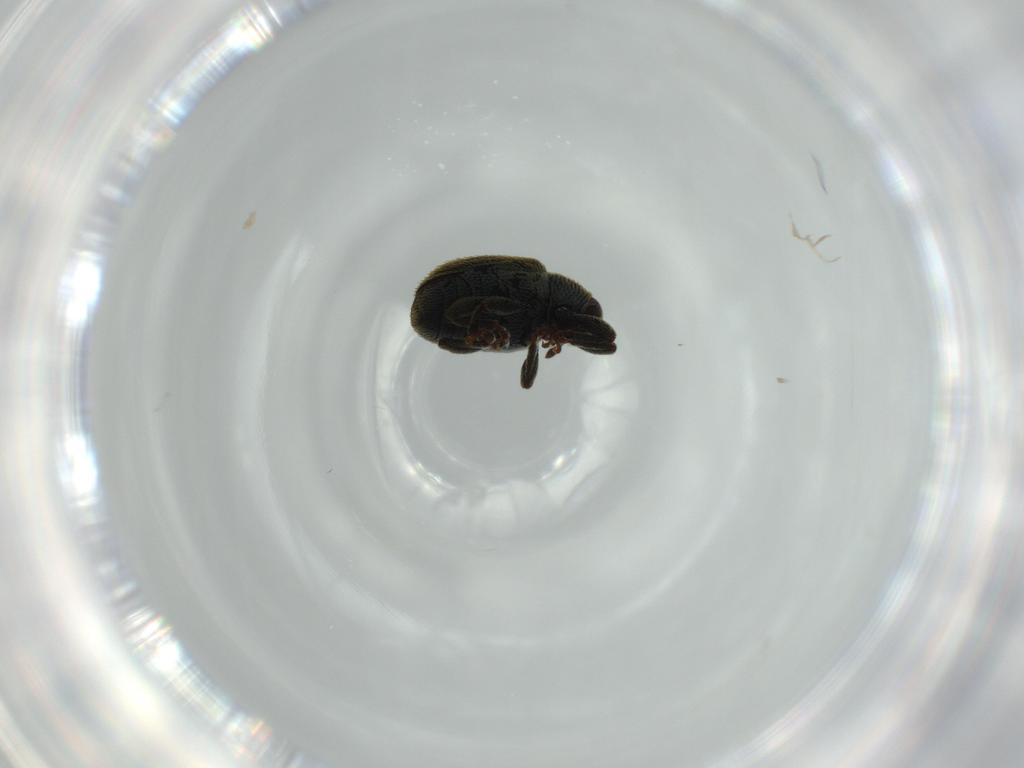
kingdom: Animalia
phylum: Arthropoda
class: Insecta
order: Coleoptera
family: Curculionidae
